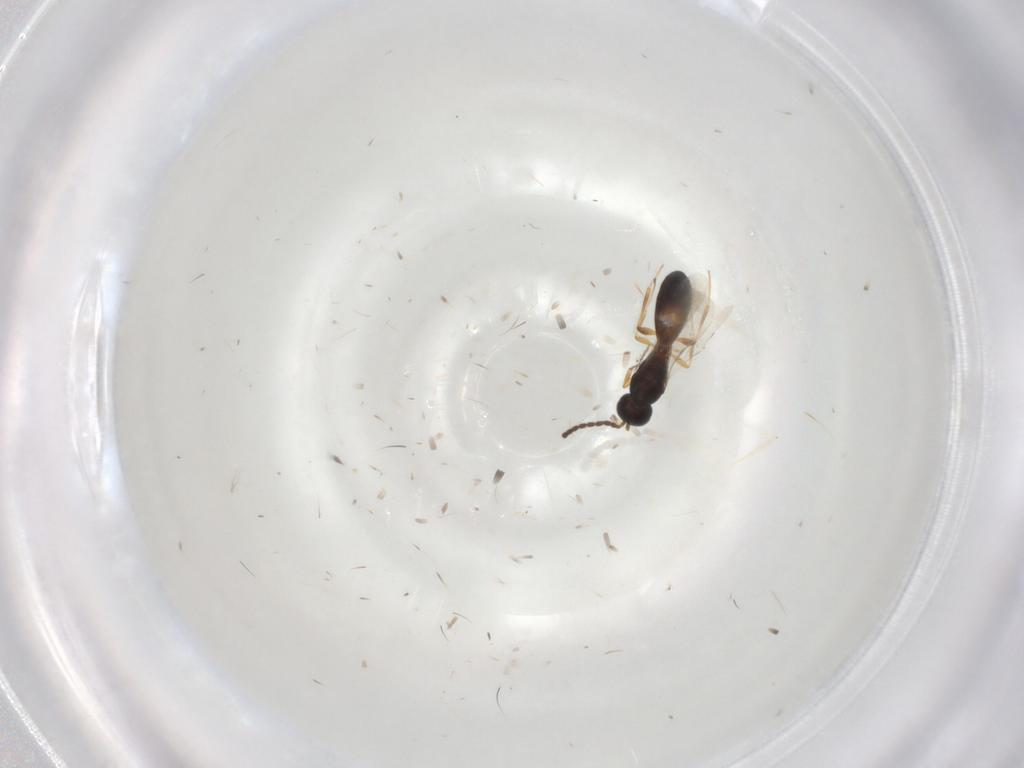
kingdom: Animalia
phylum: Arthropoda
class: Insecta
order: Hymenoptera
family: Scelionidae
